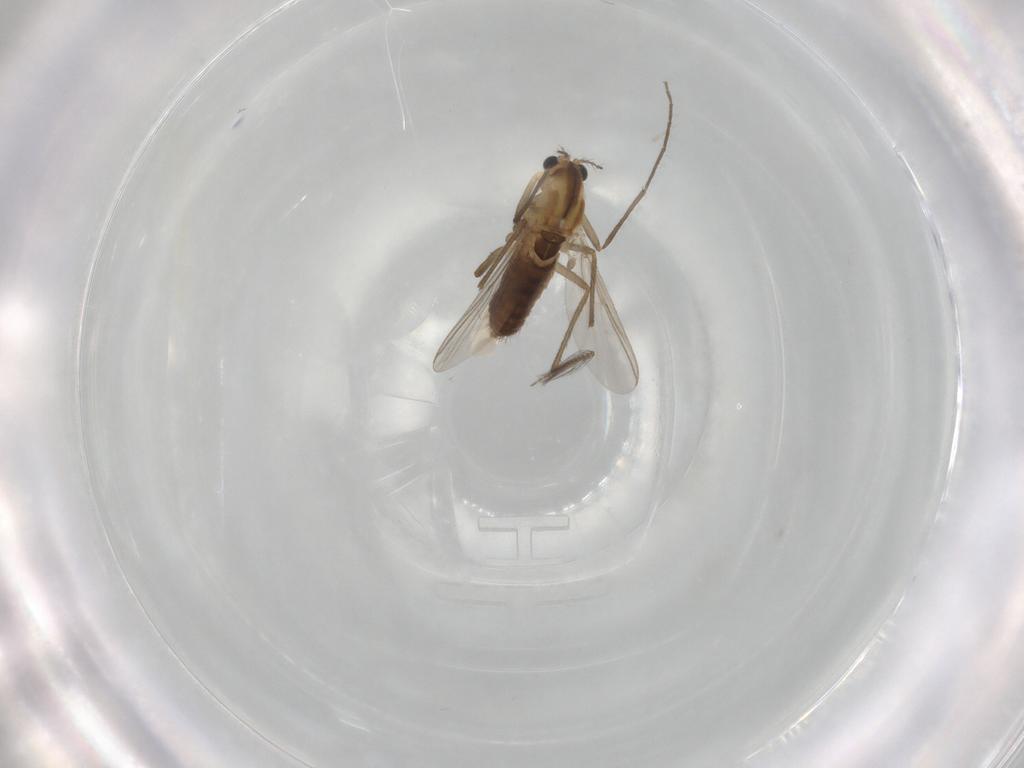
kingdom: Animalia
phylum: Arthropoda
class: Insecta
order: Diptera
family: Chironomidae
